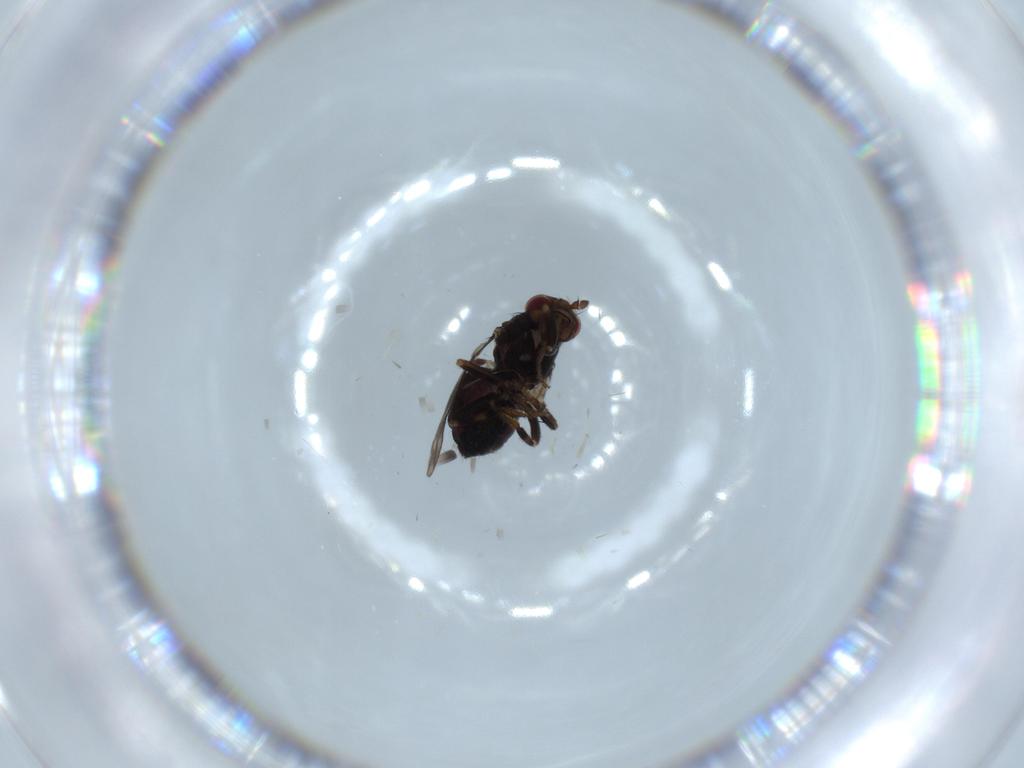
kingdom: Animalia
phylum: Arthropoda
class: Insecta
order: Diptera
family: Sphaeroceridae
